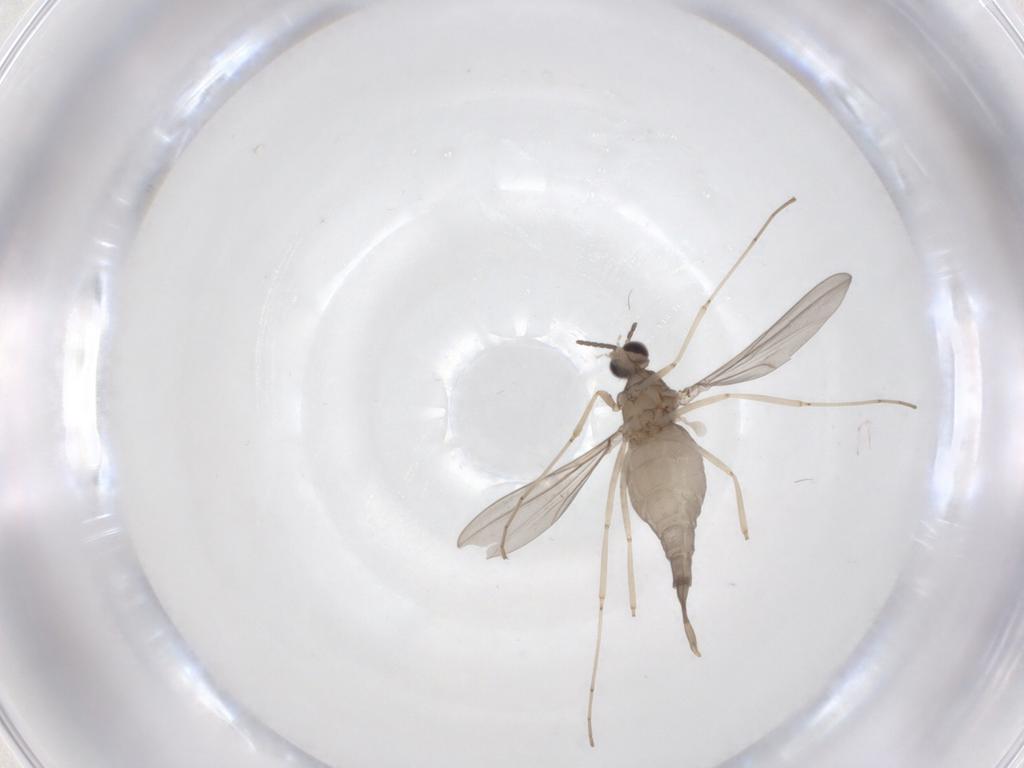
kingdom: Animalia
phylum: Arthropoda
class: Insecta
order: Diptera
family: Cecidomyiidae
